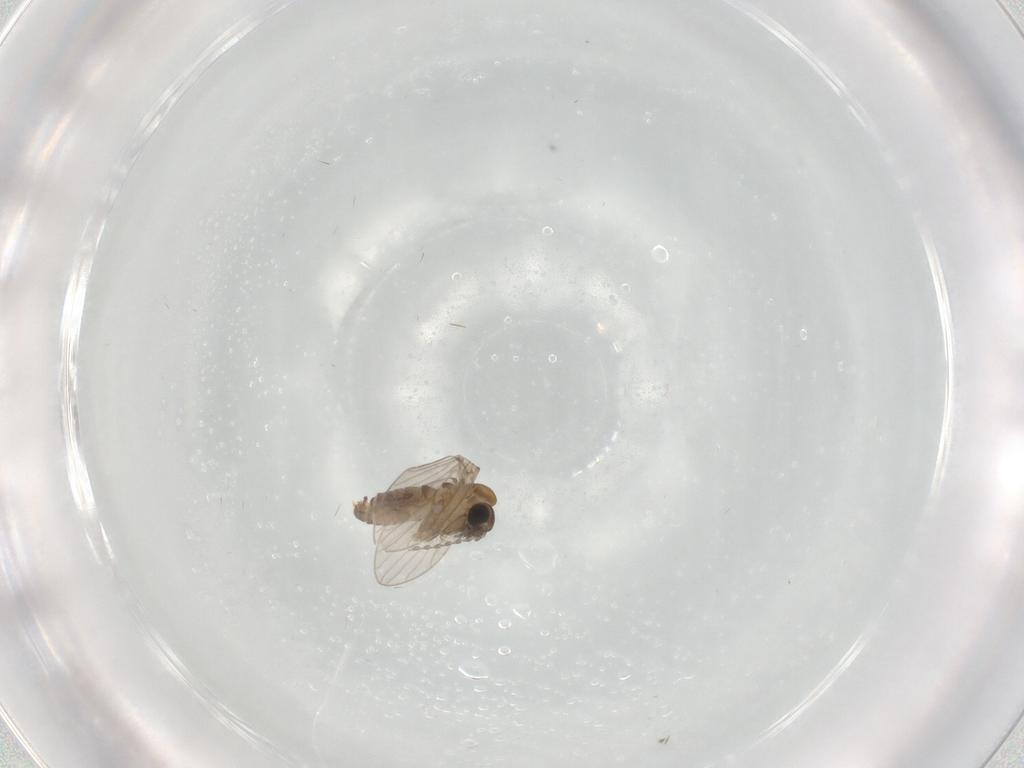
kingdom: Animalia
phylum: Arthropoda
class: Insecta
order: Diptera
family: Psychodidae
